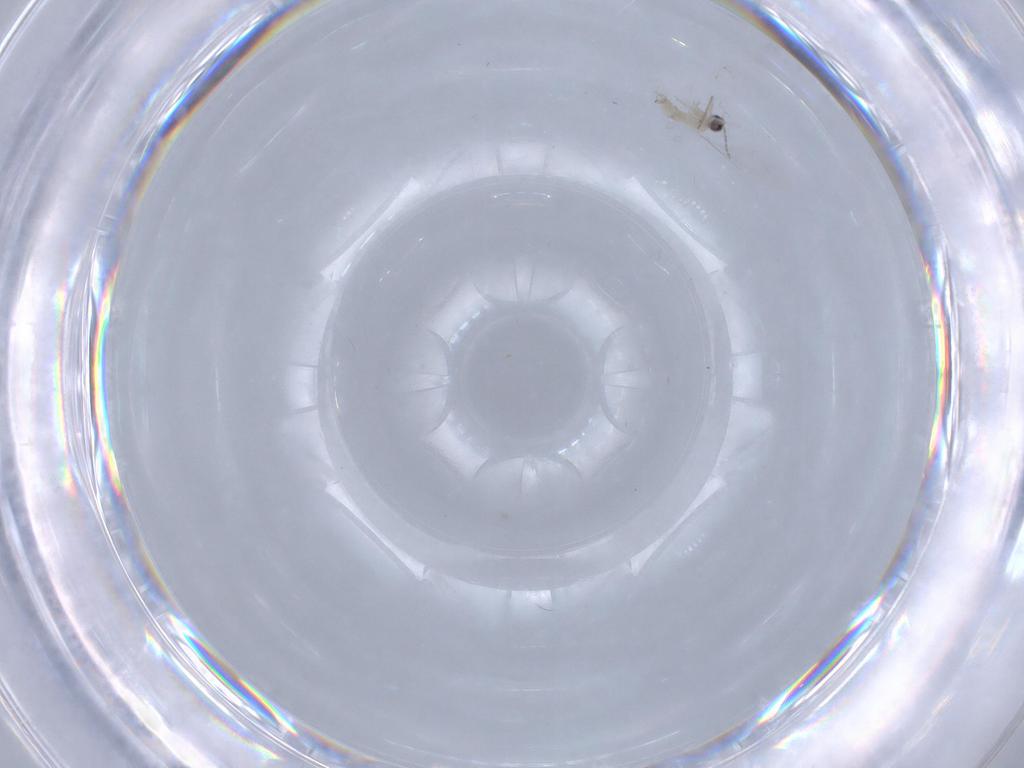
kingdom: Animalia
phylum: Arthropoda
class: Insecta
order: Diptera
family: Cecidomyiidae
